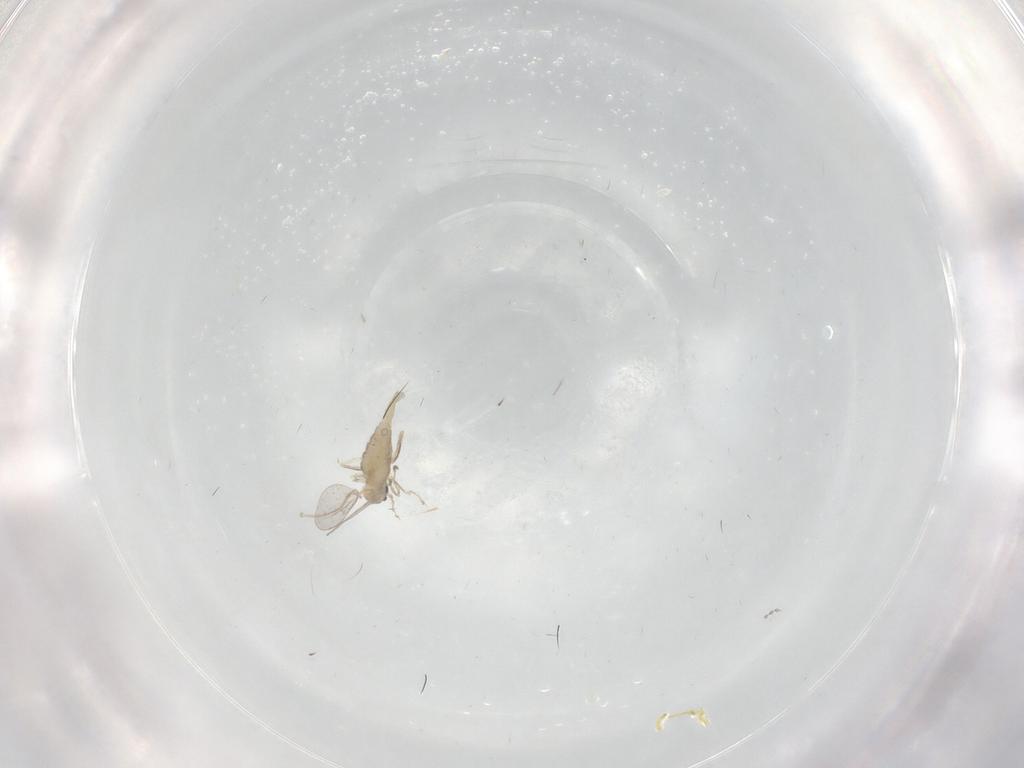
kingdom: Animalia
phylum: Arthropoda
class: Insecta
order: Diptera
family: Cecidomyiidae
